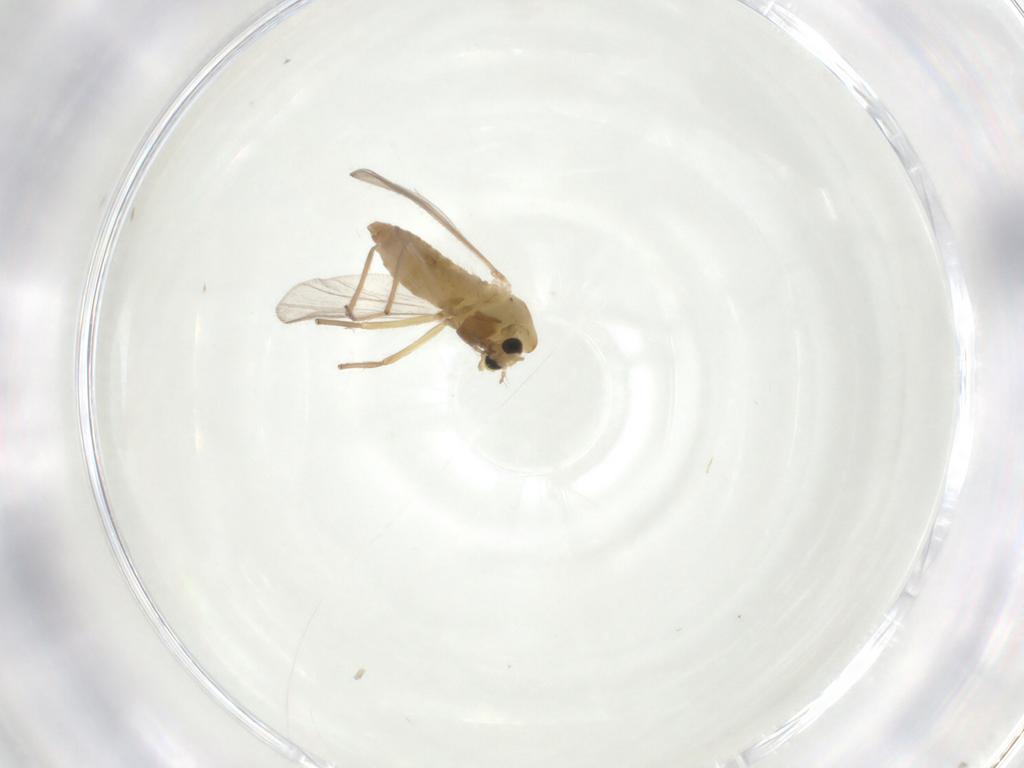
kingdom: Animalia
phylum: Arthropoda
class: Insecta
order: Diptera
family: Chironomidae
